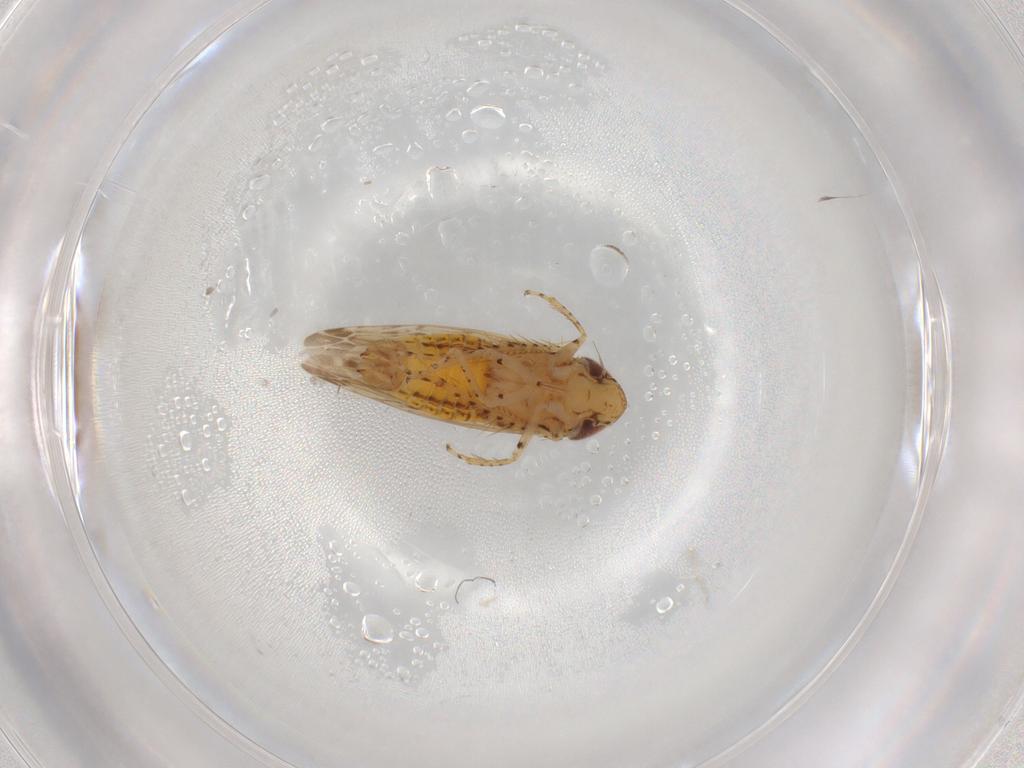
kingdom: Animalia
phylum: Arthropoda
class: Insecta
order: Hemiptera
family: Cicadellidae
